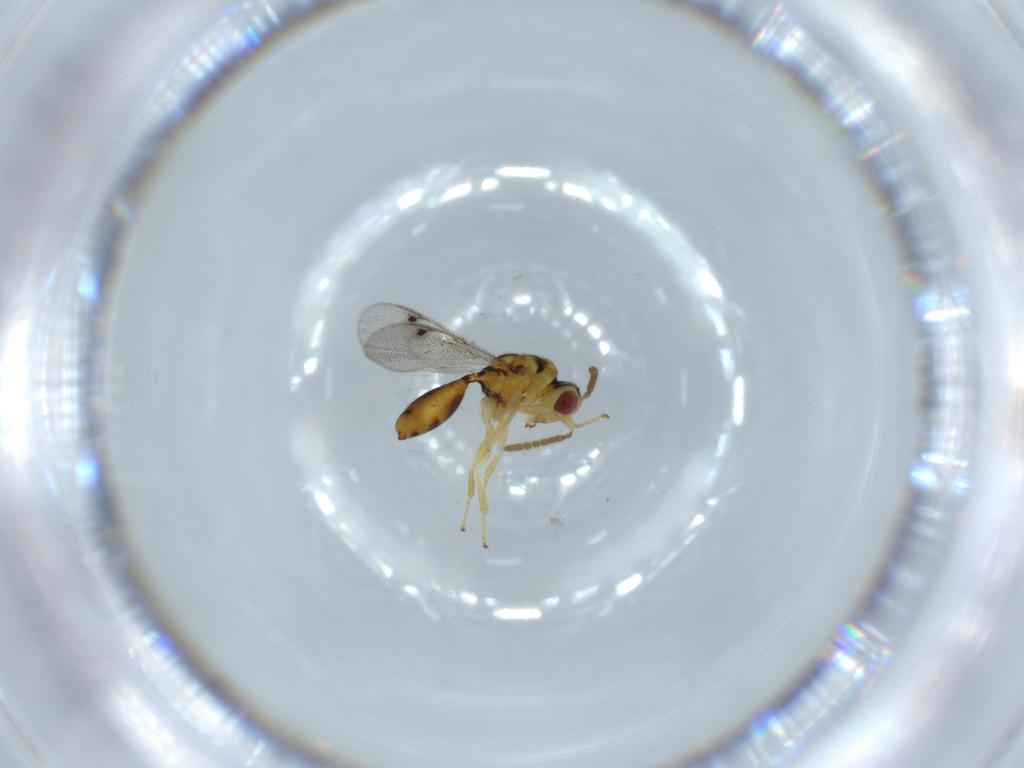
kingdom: Animalia
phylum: Arthropoda
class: Insecta
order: Hymenoptera
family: Eurytomidae
